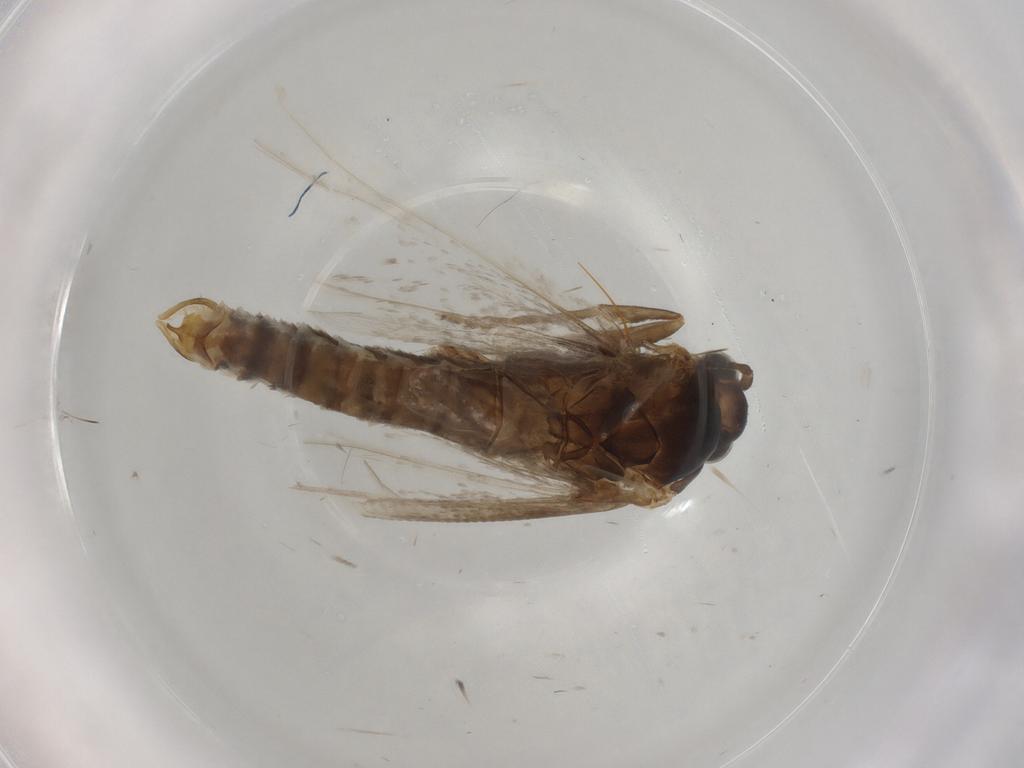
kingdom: Animalia
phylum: Arthropoda
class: Insecta
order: Lepidoptera
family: Tortricidae
